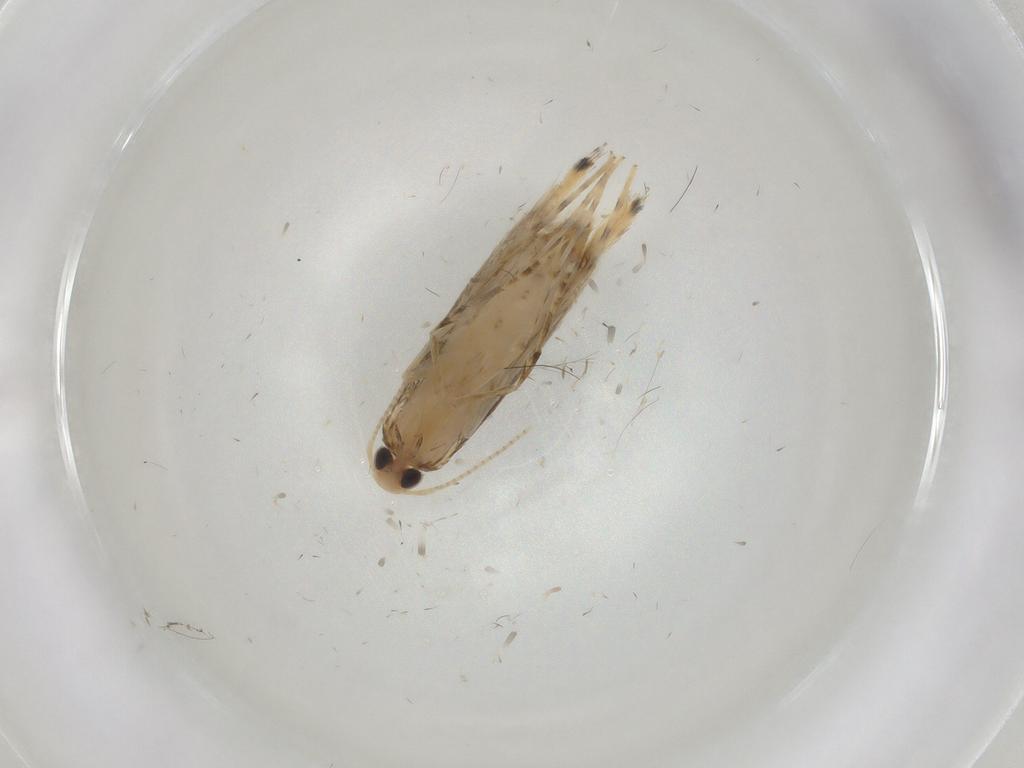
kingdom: Animalia
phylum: Arthropoda
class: Insecta
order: Lepidoptera
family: Gracillariidae
